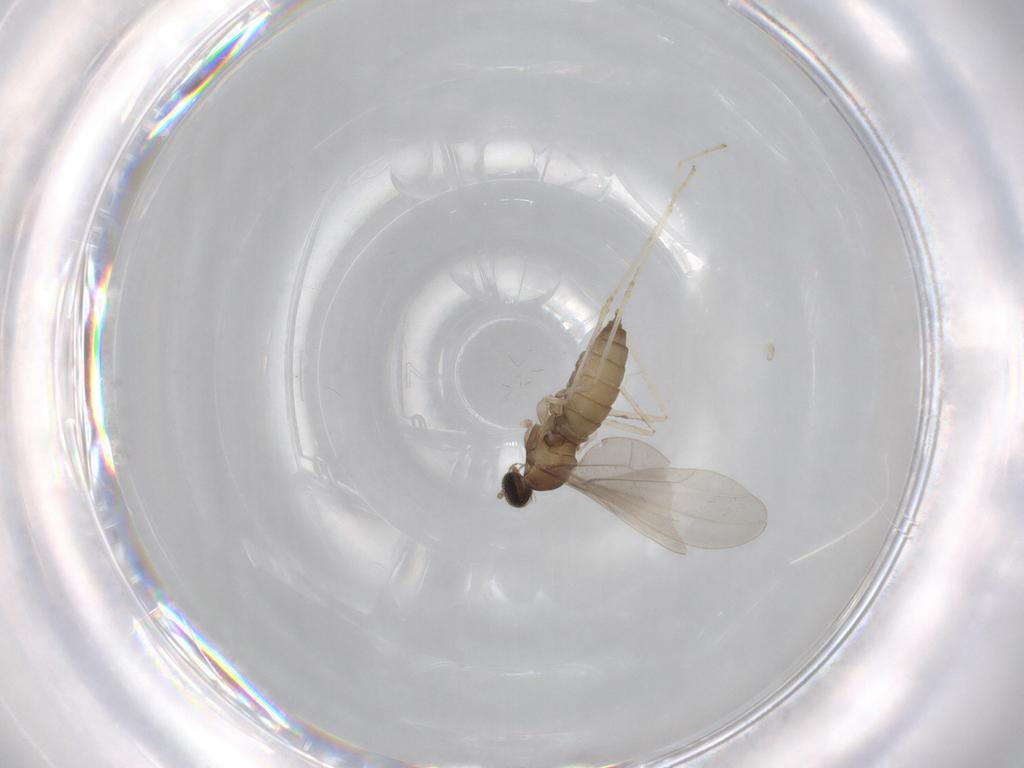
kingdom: Animalia
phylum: Arthropoda
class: Insecta
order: Diptera
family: Cecidomyiidae
